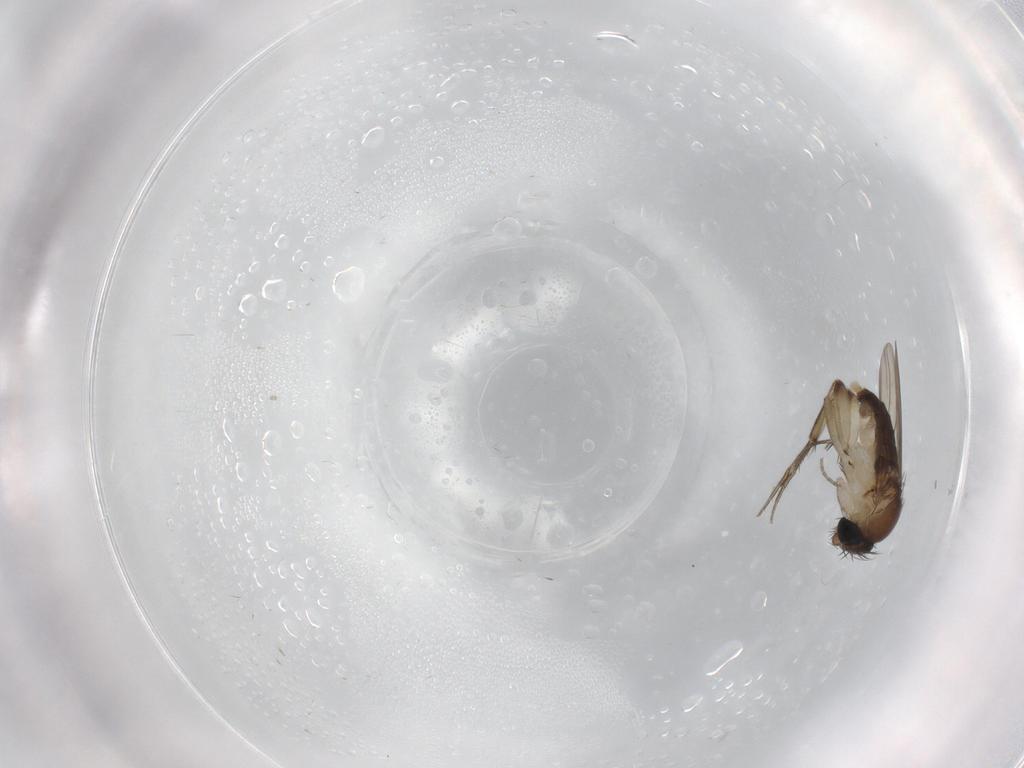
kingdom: Animalia
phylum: Arthropoda
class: Insecta
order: Diptera
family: Phoridae
